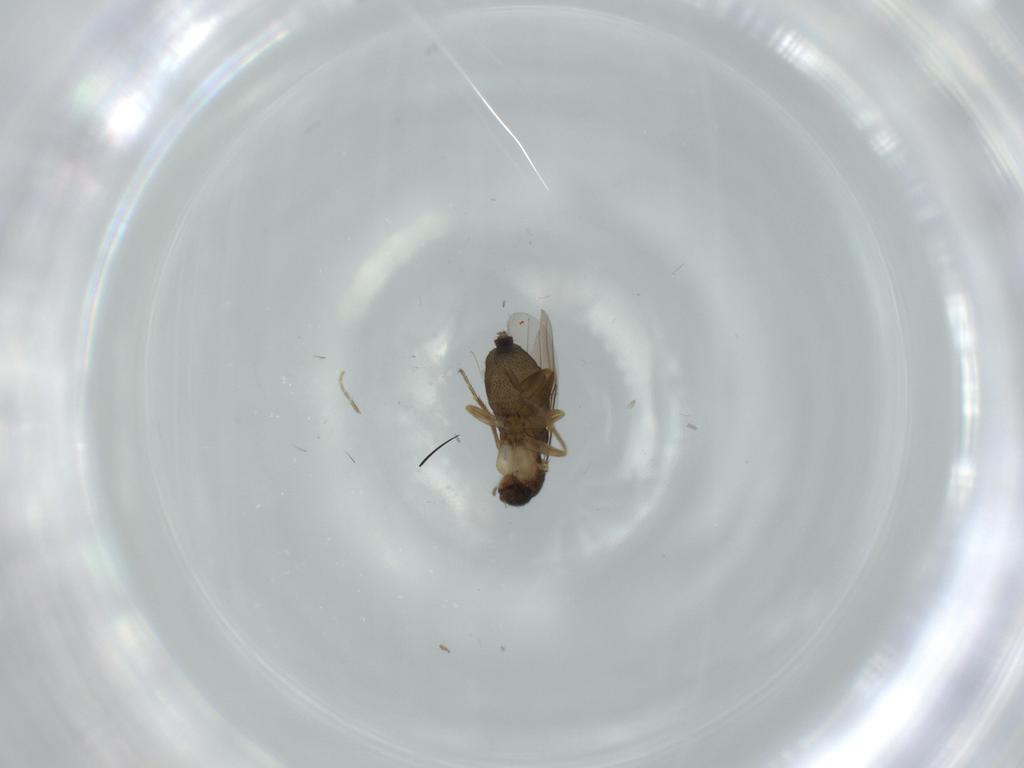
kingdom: Animalia
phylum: Arthropoda
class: Insecta
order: Diptera
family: Phoridae
